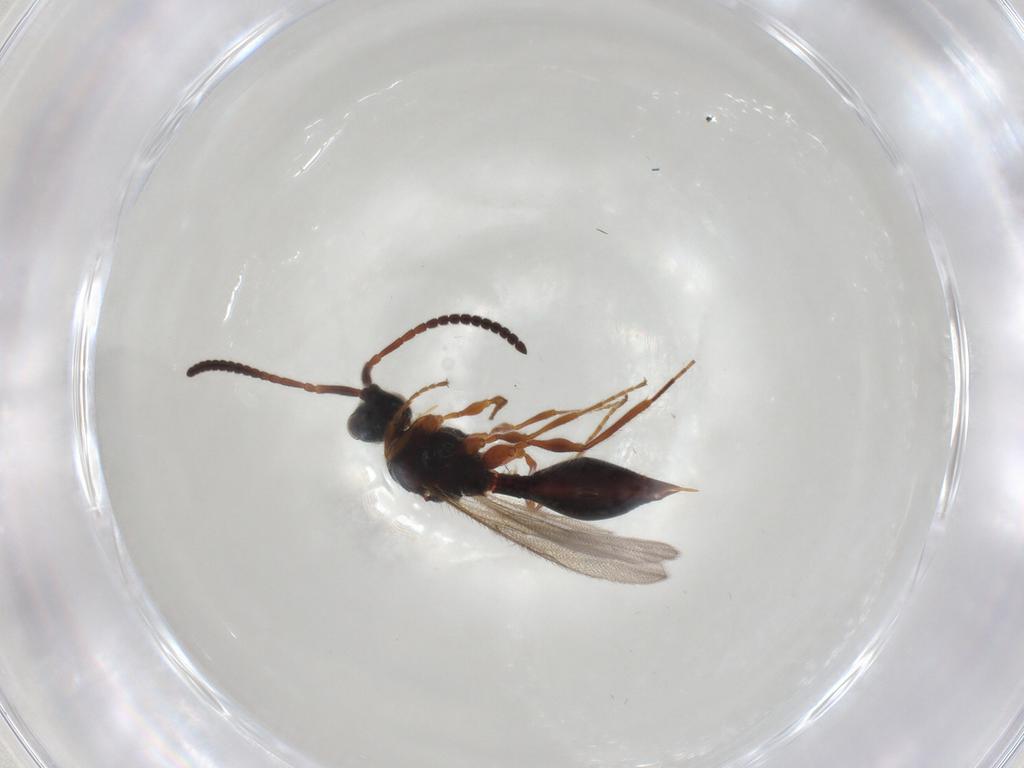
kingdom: Animalia
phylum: Arthropoda
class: Insecta
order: Hymenoptera
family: Diapriidae
